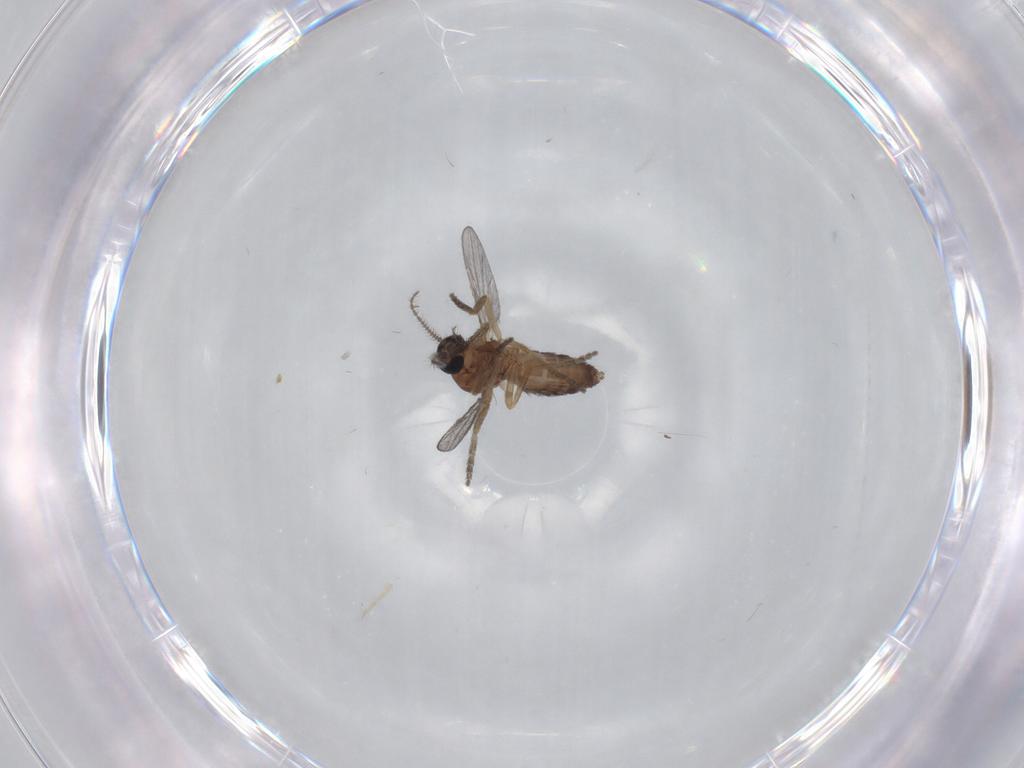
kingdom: Animalia
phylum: Arthropoda
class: Insecta
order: Diptera
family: Ceratopogonidae
